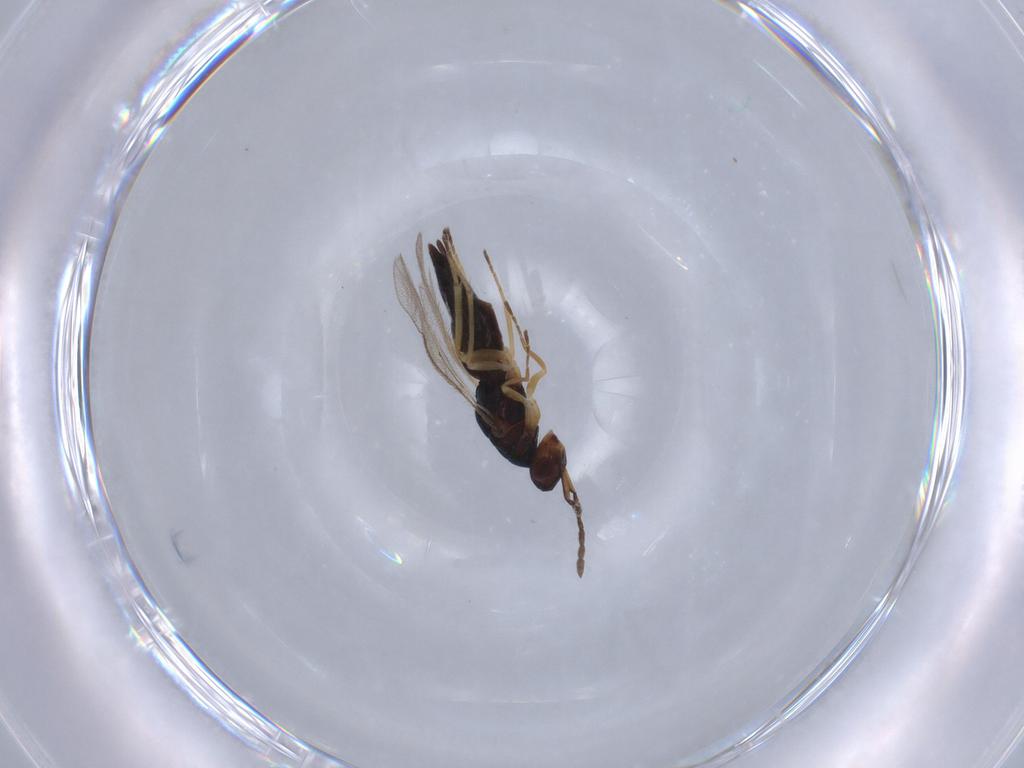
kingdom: Animalia
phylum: Arthropoda
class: Insecta
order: Hymenoptera
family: Eulophidae
